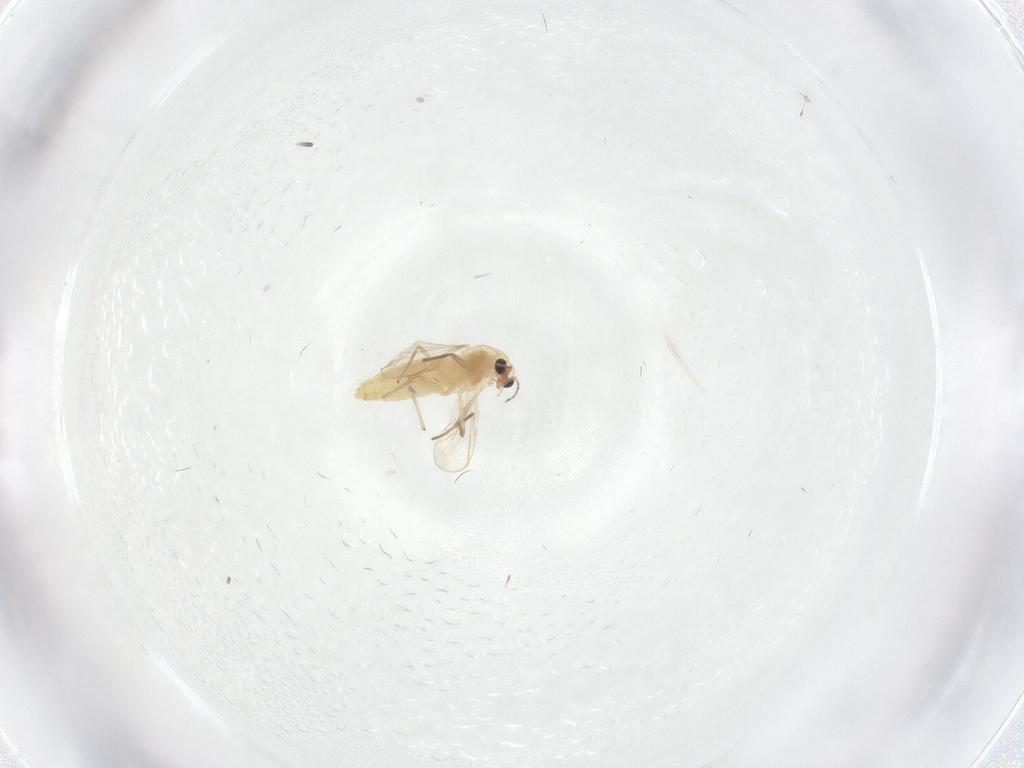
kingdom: Animalia
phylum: Arthropoda
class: Insecta
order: Diptera
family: Chironomidae
